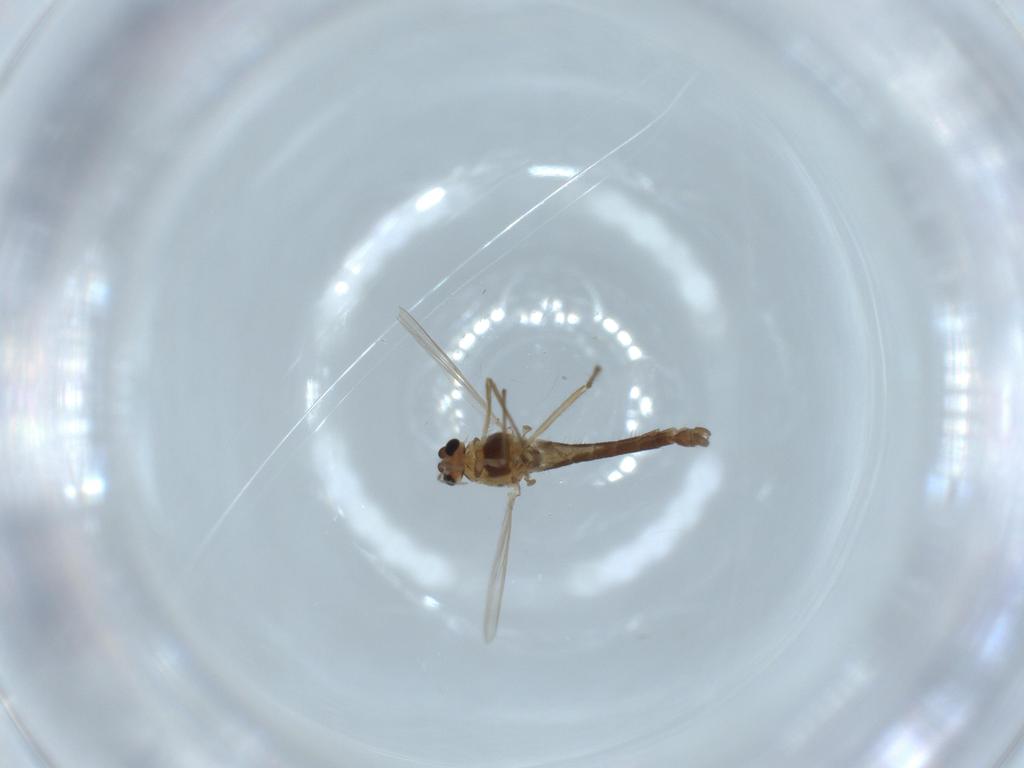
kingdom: Animalia
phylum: Arthropoda
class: Insecta
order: Diptera
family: Chironomidae
